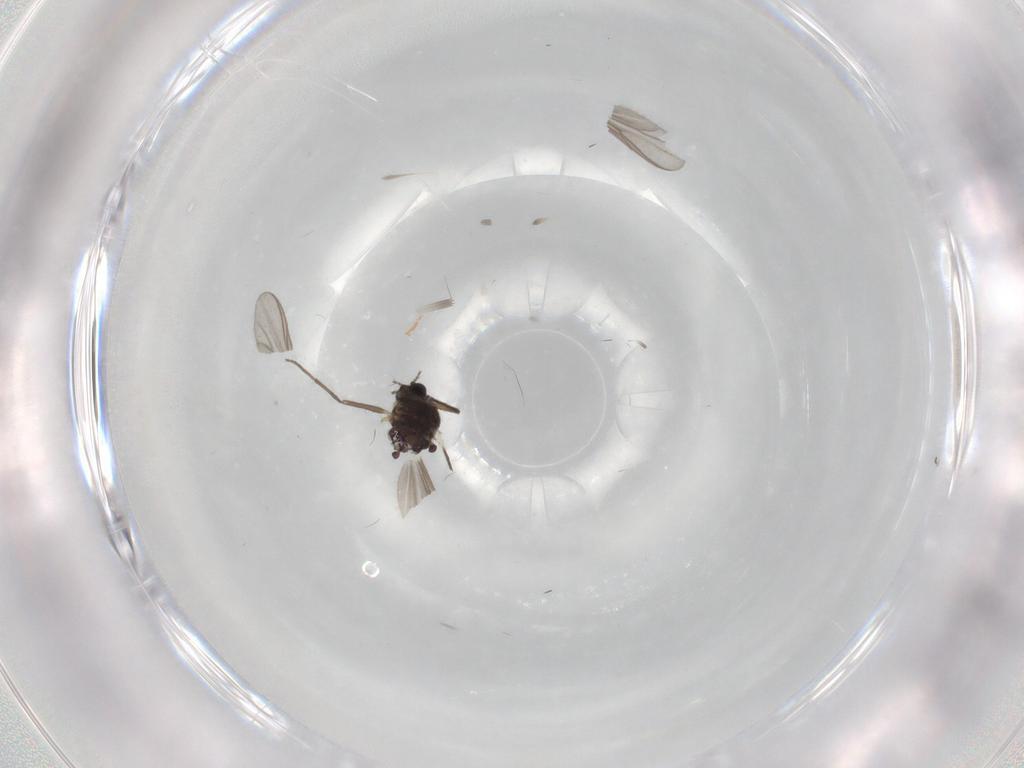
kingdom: Animalia
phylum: Arthropoda
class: Insecta
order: Diptera
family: Chironomidae
